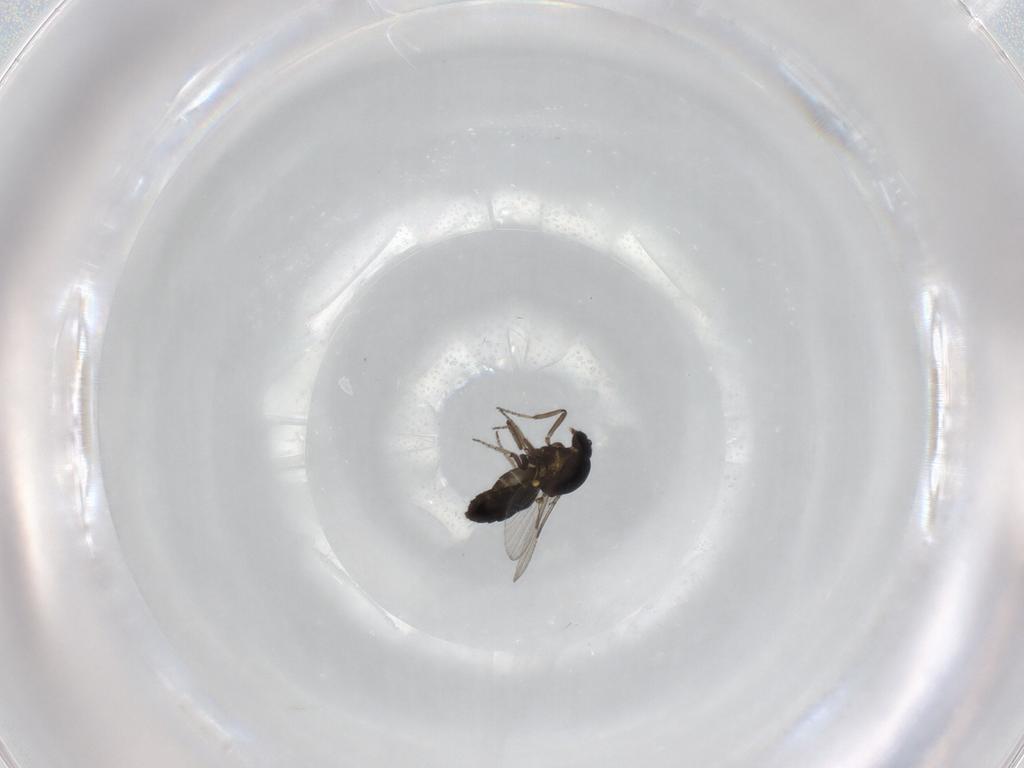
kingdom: Animalia
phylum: Arthropoda
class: Insecta
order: Diptera
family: Ceratopogonidae
